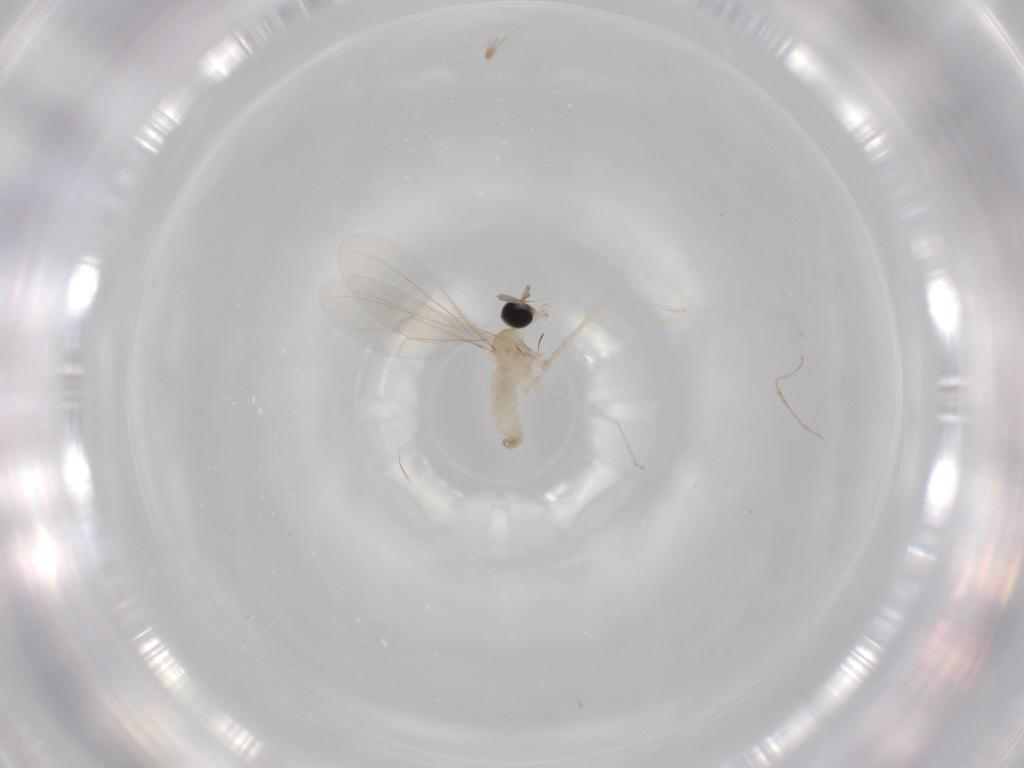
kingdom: Animalia
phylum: Arthropoda
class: Insecta
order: Diptera
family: Cecidomyiidae
